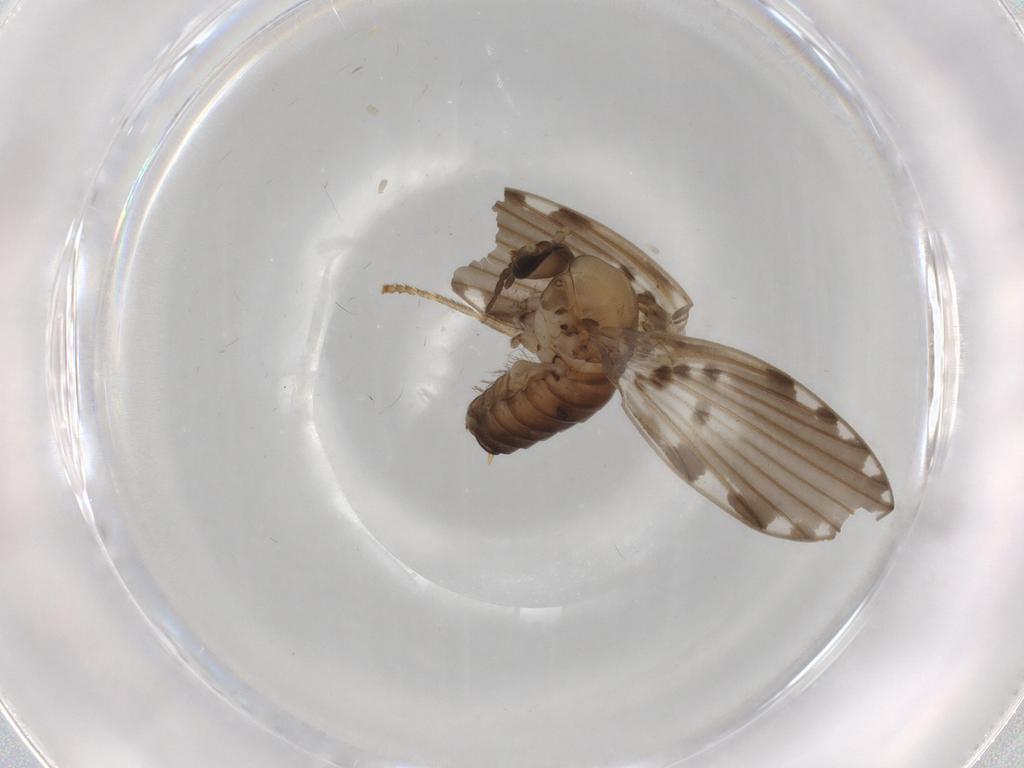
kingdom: Animalia
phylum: Arthropoda
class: Insecta
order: Diptera
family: Psychodidae
